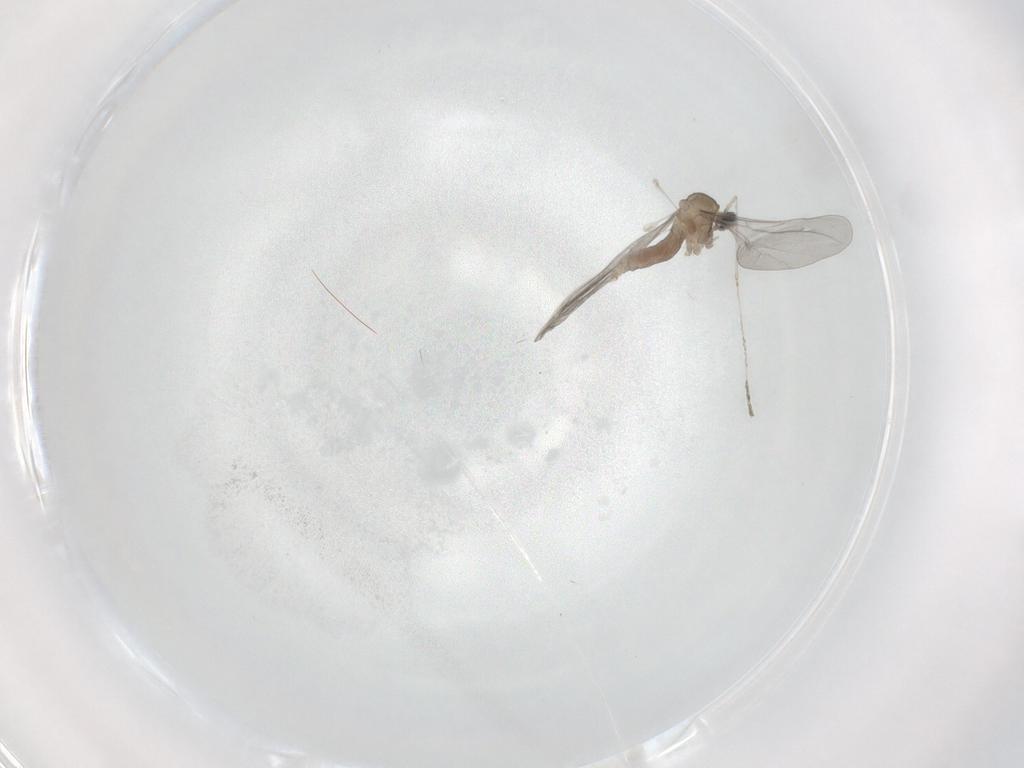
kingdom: Animalia
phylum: Arthropoda
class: Insecta
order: Diptera
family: Cecidomyiidae
